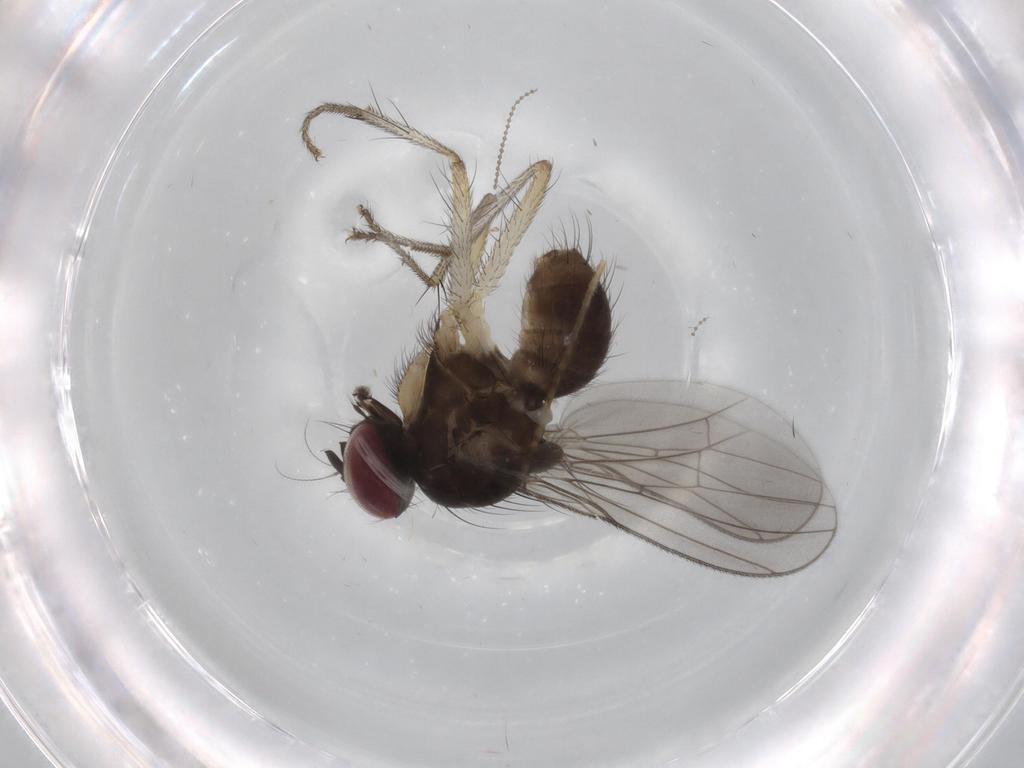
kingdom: Animalia
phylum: Arthropoda
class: Insecta
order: Diptera
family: Anthomyiidae
